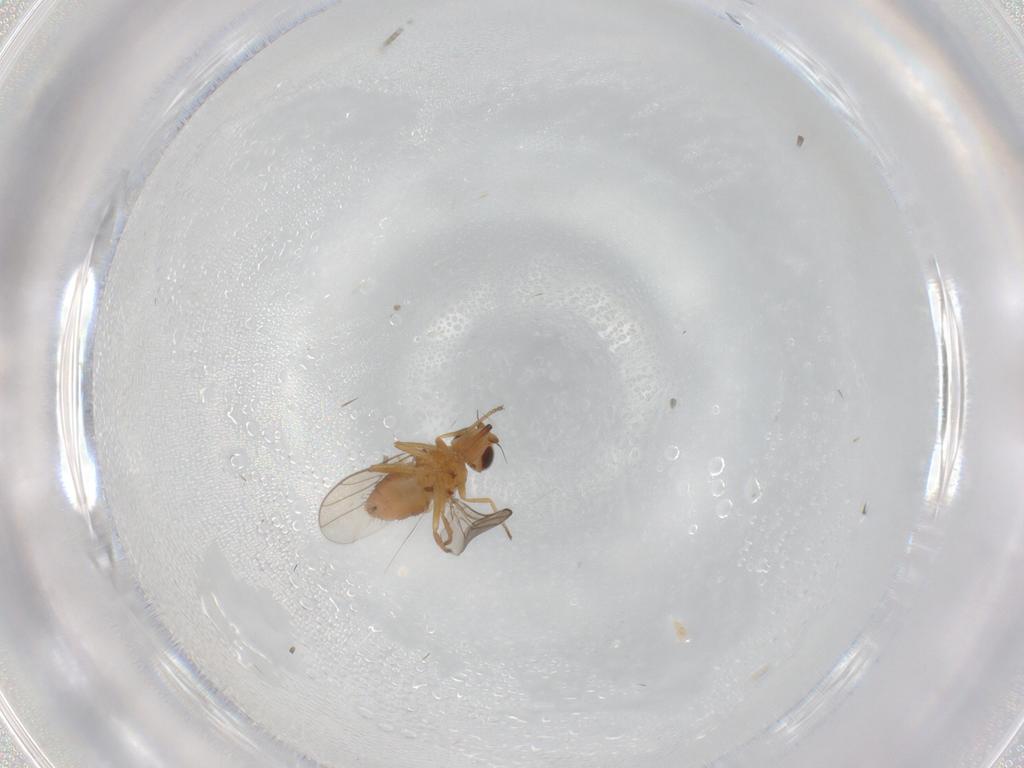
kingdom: Animalia
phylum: Arthropoda
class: Insecta
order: Diptera
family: Chloropidae
